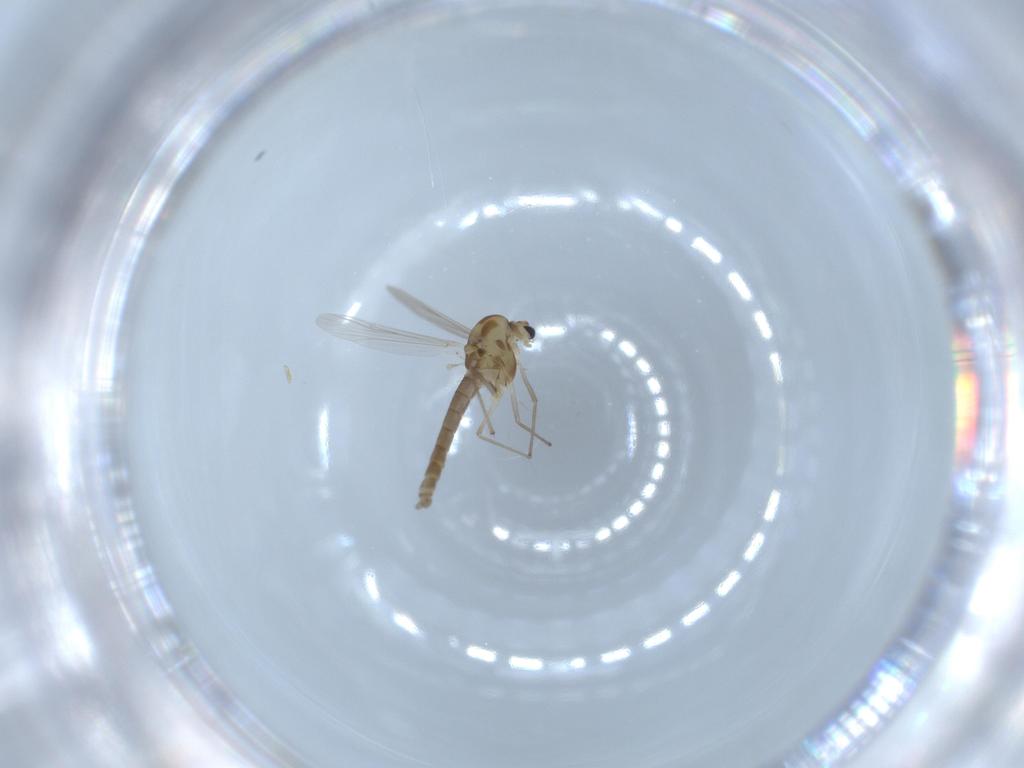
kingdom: Animalia
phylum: Arthropoda
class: Insecta
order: Diptera
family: Chironomidae
